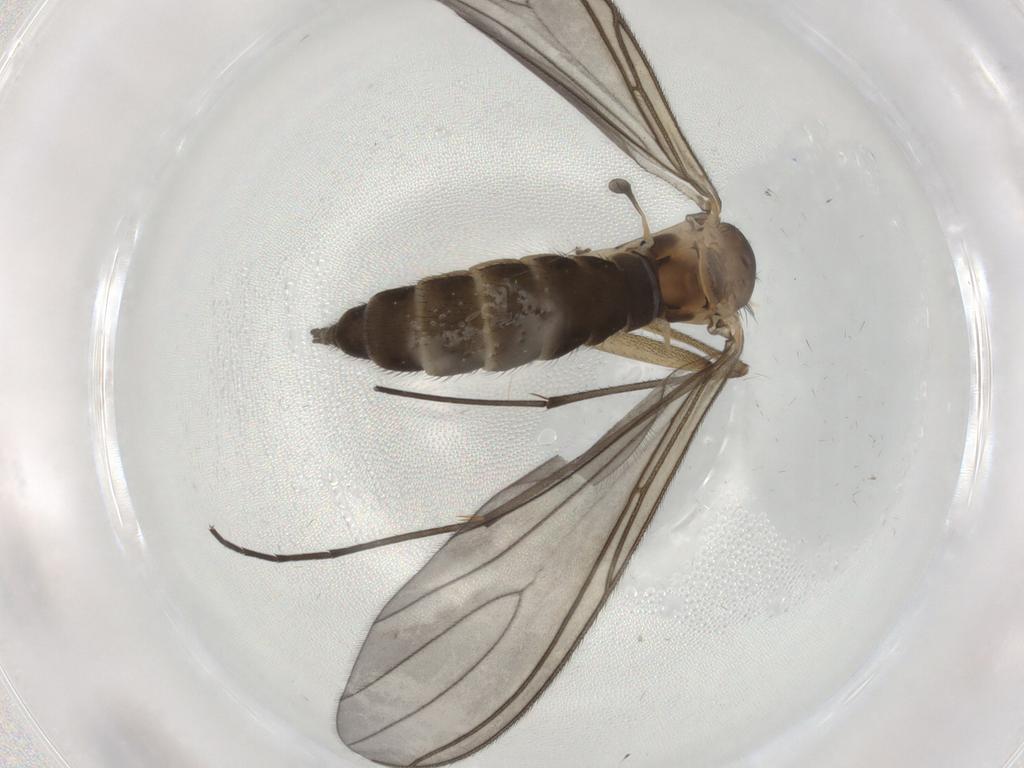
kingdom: Animalia
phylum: Arthropoda
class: Insecta
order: Diptera
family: Sciaridae
